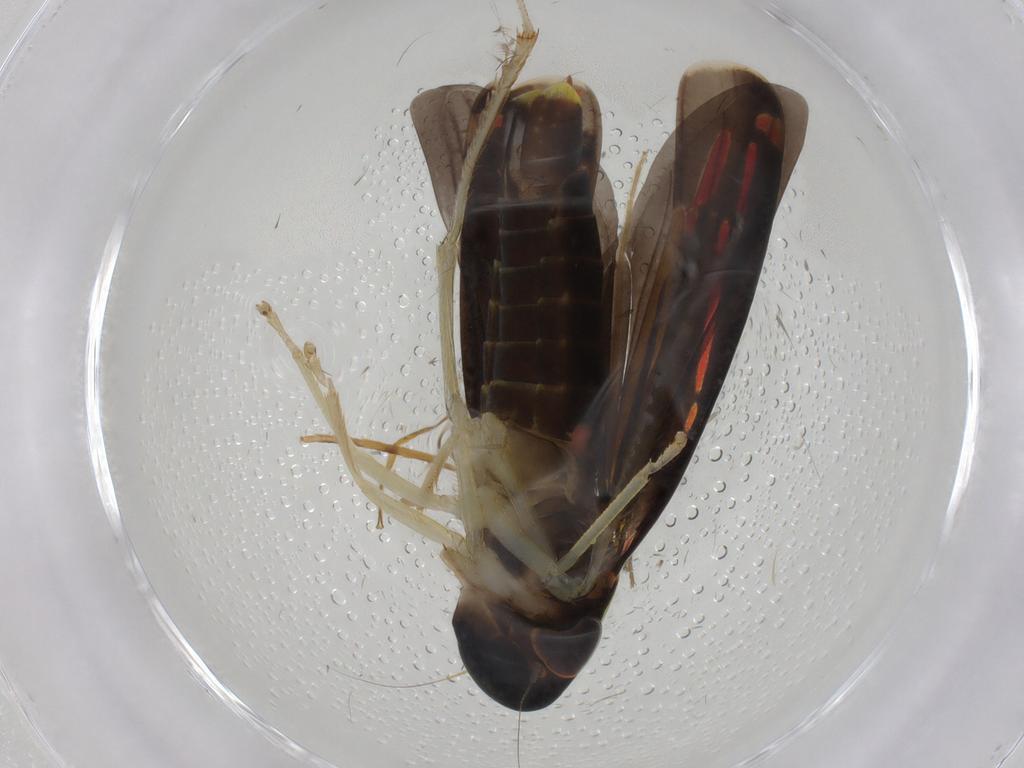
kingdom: Animalia
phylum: Arthropoda
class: Insecta
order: Hemiptera
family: Cicadellidae
